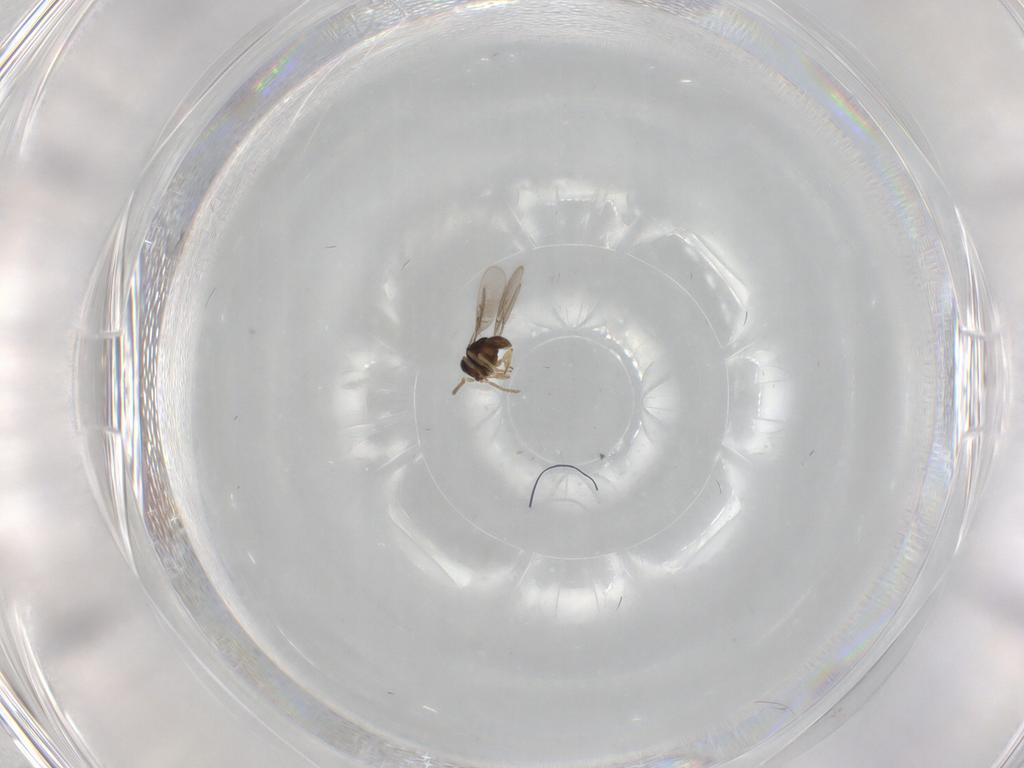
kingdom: Animalia
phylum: Arthropoda
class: Insecta
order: Hymenoptera
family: Scelionidae
